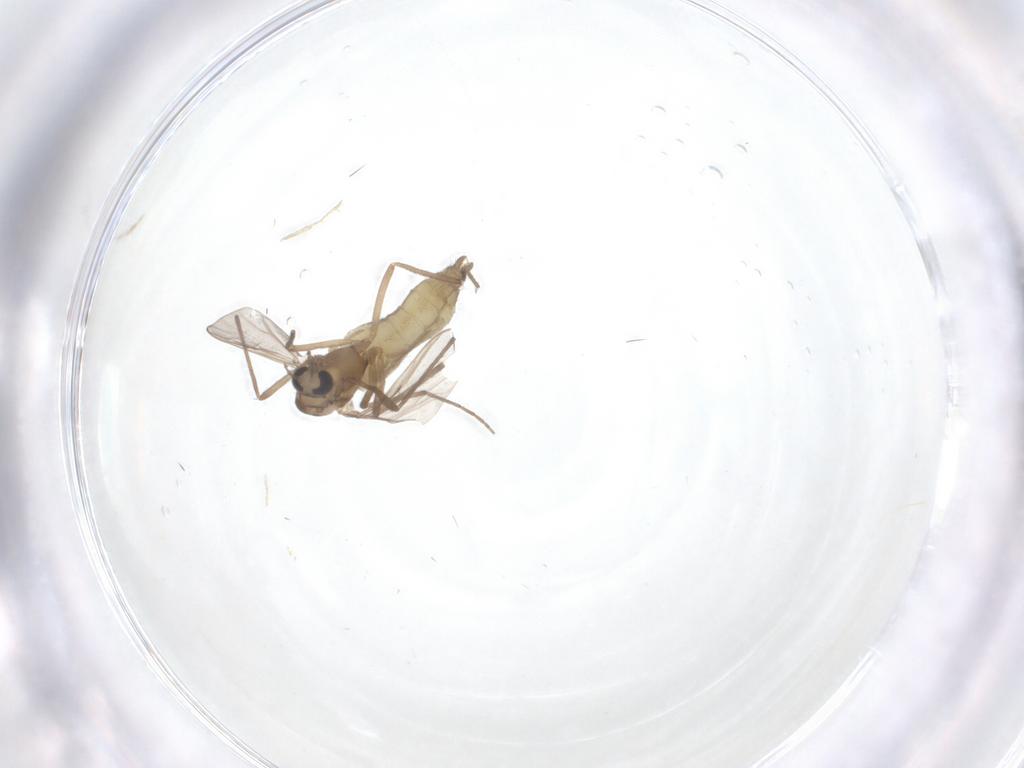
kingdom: Animalia
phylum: Arthropoda
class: Insecta
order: Diptera
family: Chironomidae
